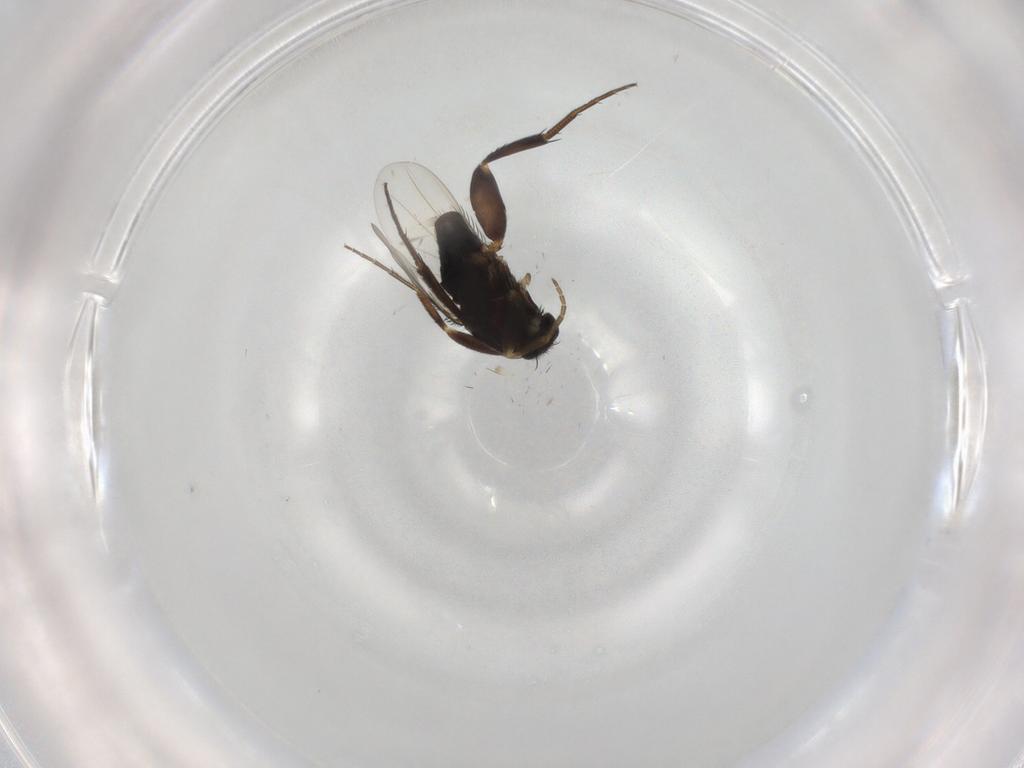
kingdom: Animalia
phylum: Arthropoda
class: Insecta
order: Diptera
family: Phoridae
